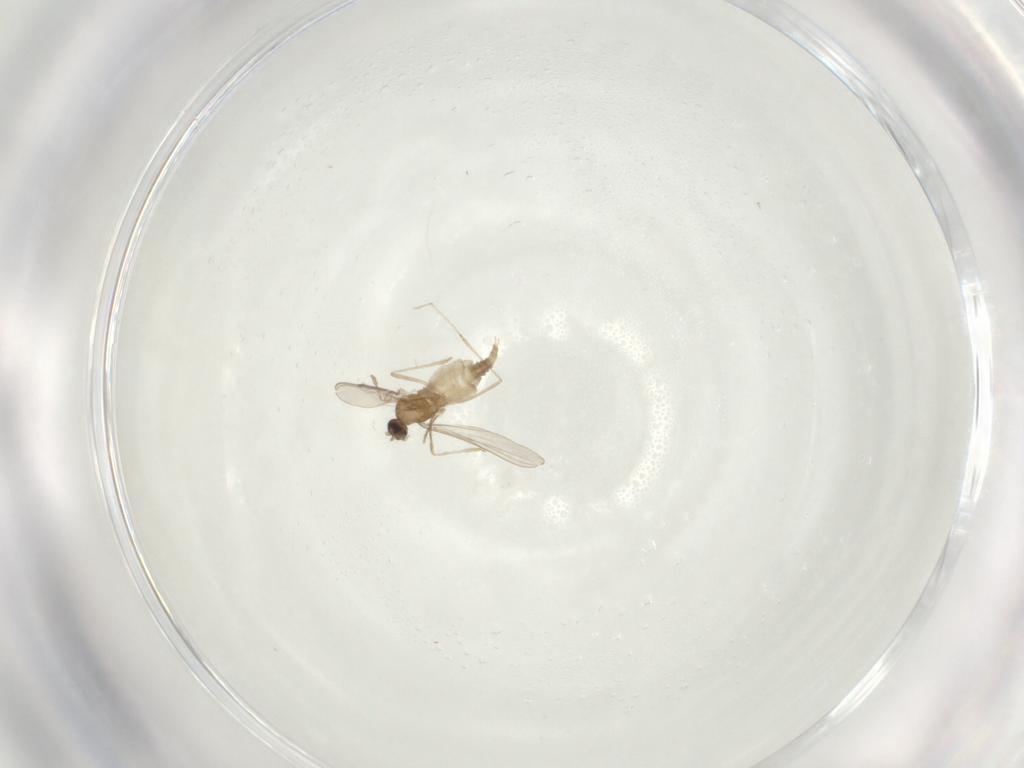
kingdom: Animalia
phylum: Arthropoda
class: Insecta
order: Diptera
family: Cecidomyiidae
